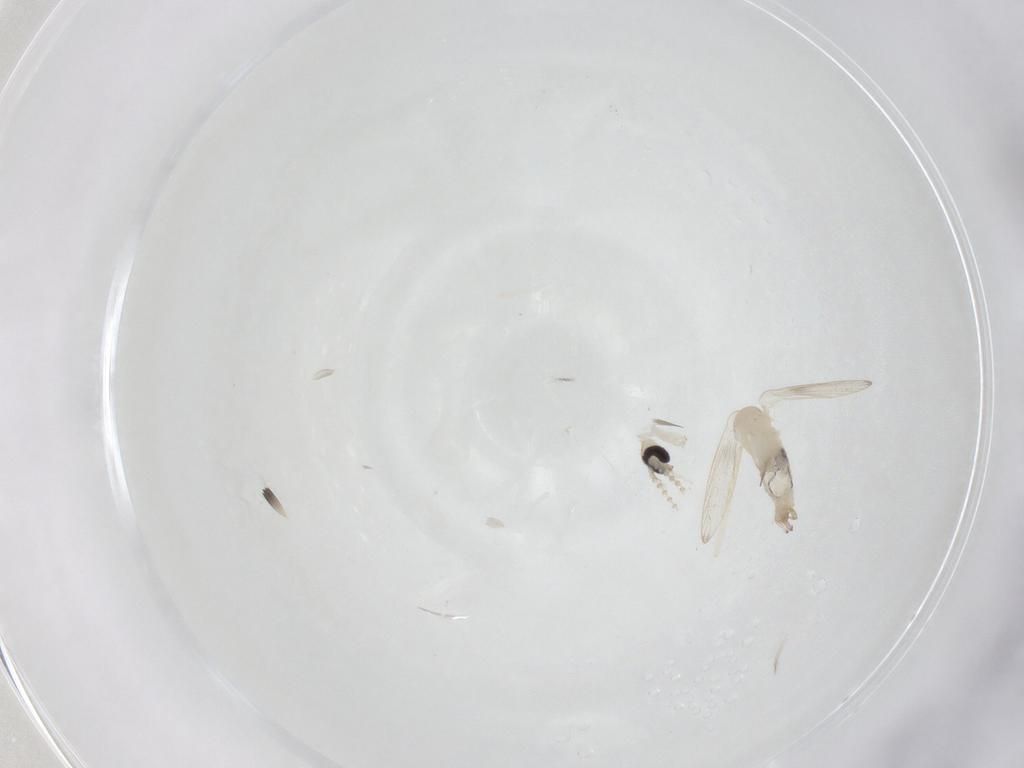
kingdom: Animalia
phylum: Arthropoda
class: Insecta
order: Diptera
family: Psychodidae
